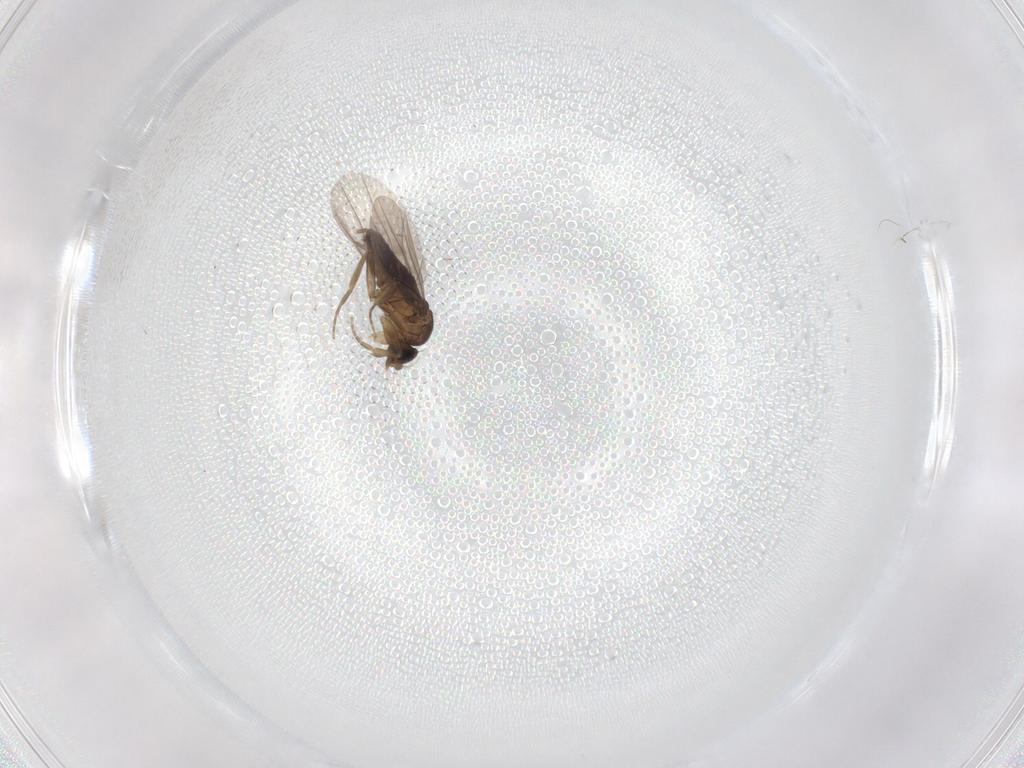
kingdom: Animalia
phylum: Arthropoda
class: Insecta
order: Diptera
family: Phoridae
